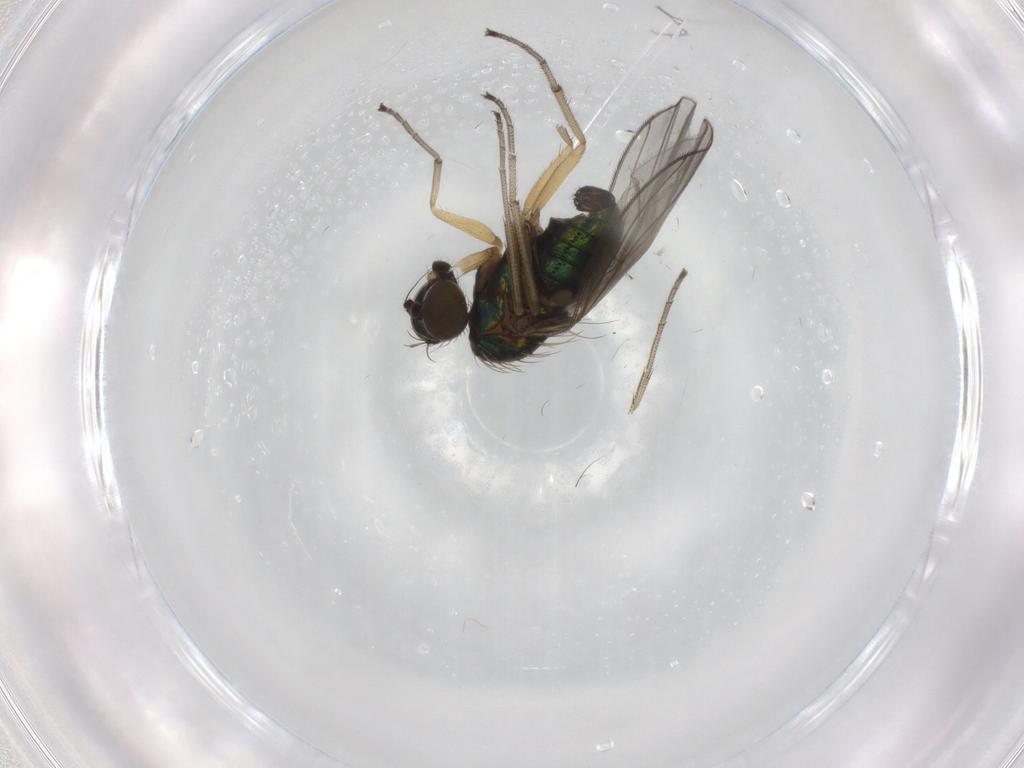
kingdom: Animalia
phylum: Arthropoda
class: Insecta
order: Diptera
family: Dolichopodidae
